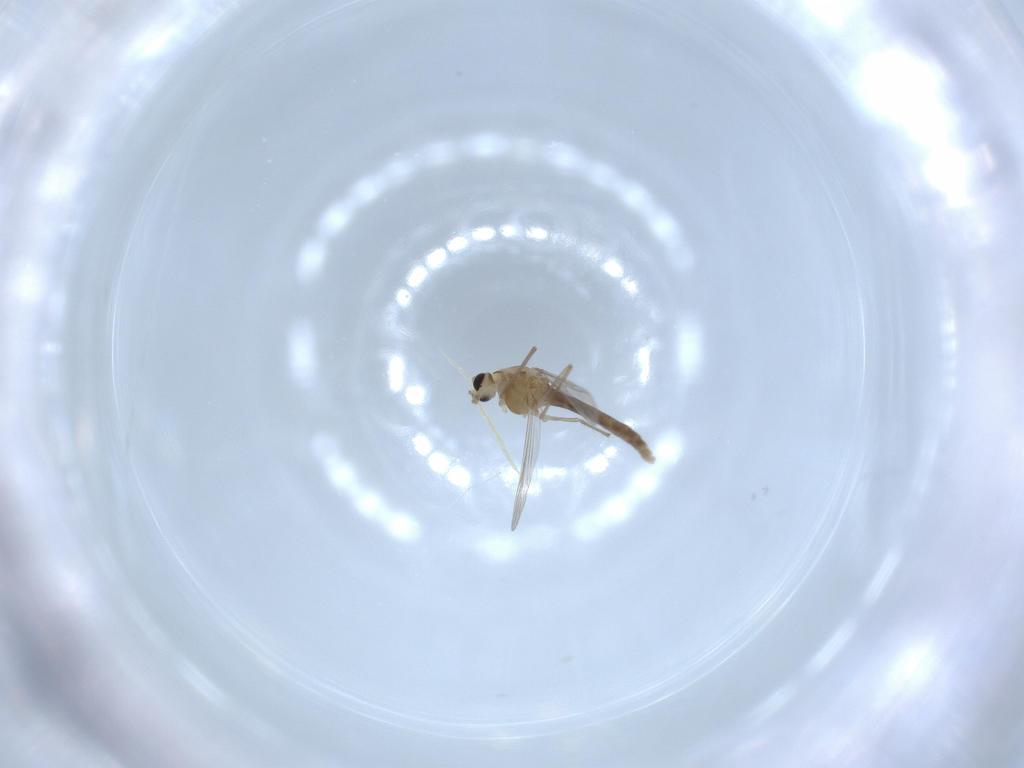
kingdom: Animalia
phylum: Arthropoda
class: Insecta
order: Diptera
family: Chironomidae
